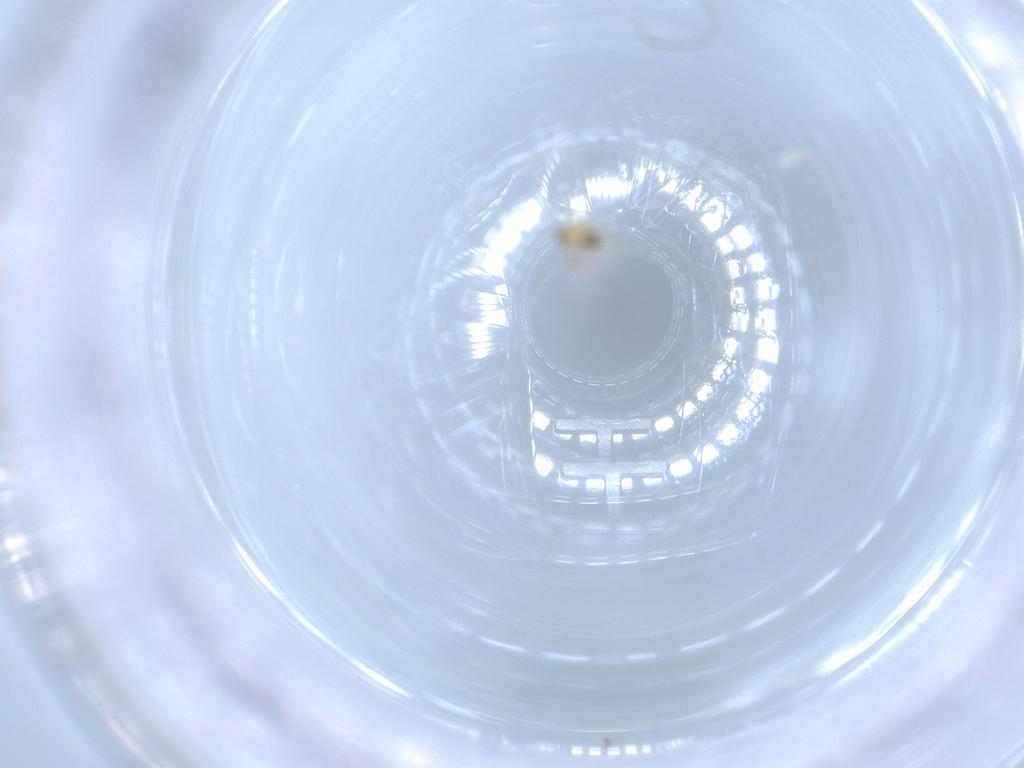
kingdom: Animalia
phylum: Arthropoda
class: Insecta
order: Hymenoptera
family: Trichogrammatidae
